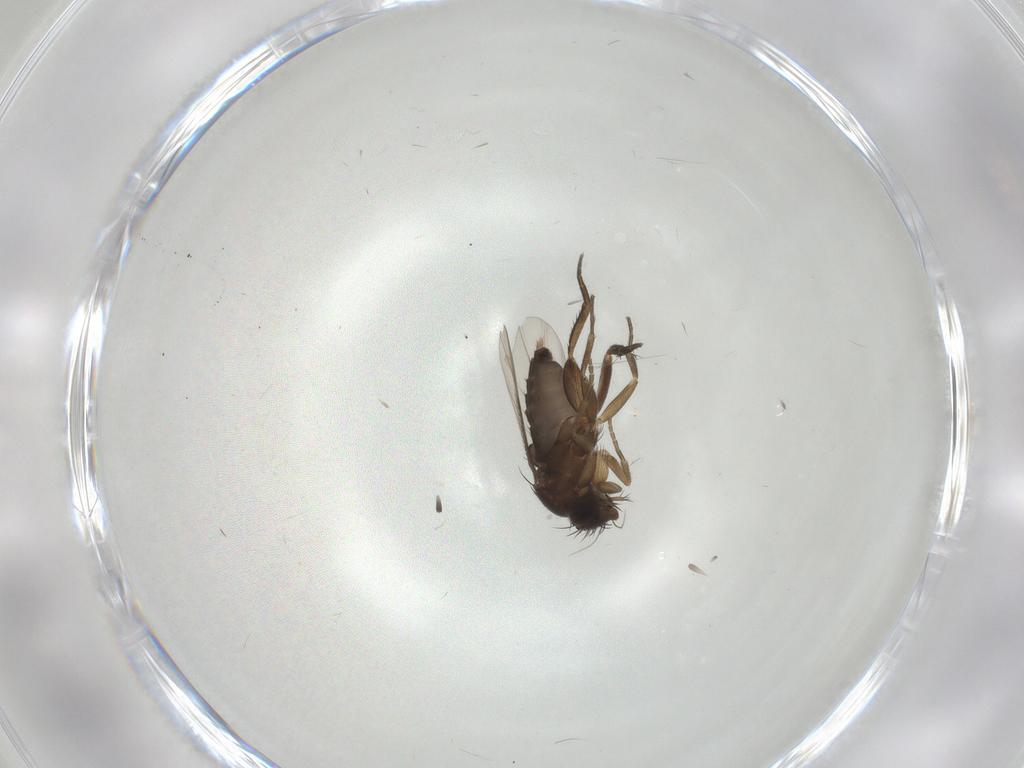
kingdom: Animalia
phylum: Arthropoda
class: Insecta
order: Diptera
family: Phoridae
